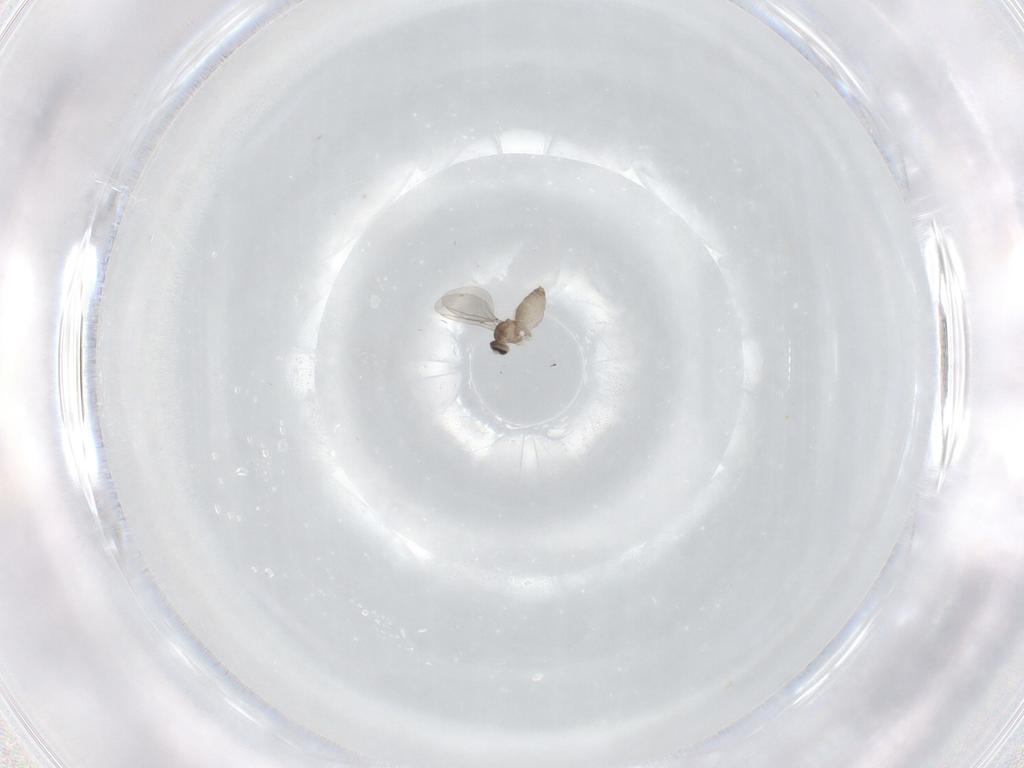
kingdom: Animalia
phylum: Arthropoda
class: Insecta
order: Diptera
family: Cecidomyiidae
